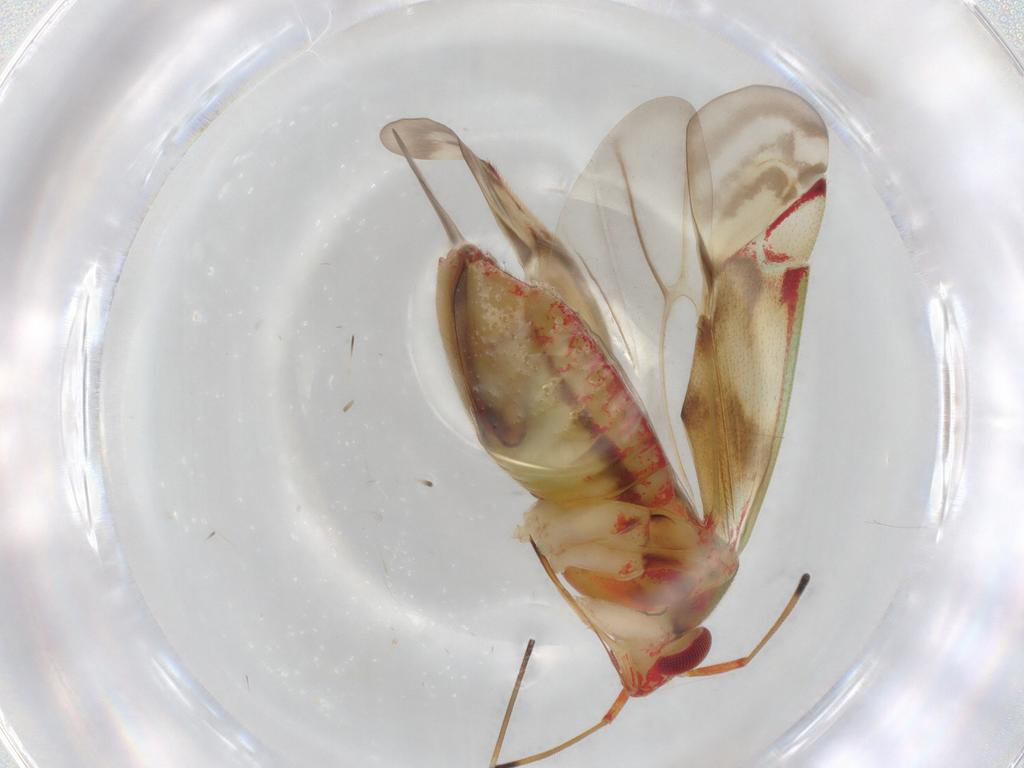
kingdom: Animalia
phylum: Arthropoda
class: Insecta
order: Hemiptera
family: Miridae
